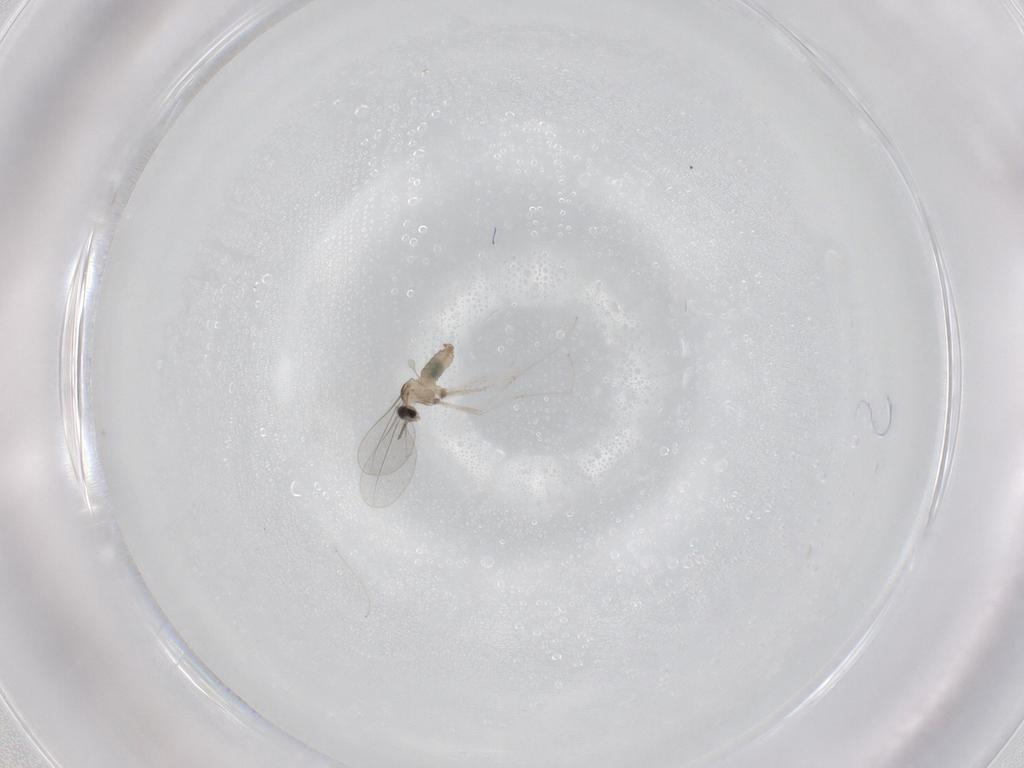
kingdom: Animalia
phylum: Arthropoda
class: Insecta
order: Diptera
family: Cecidomyiidae
